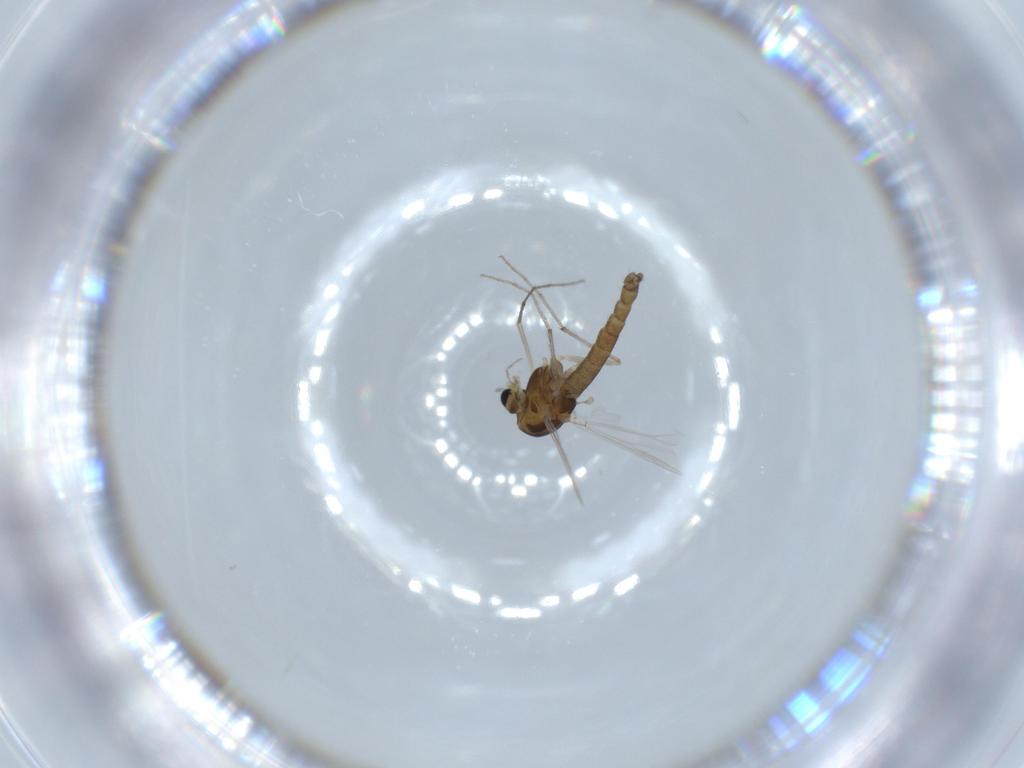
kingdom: Animalia
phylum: Arthropoda
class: Insecta
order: Diptera
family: Chironomidae
